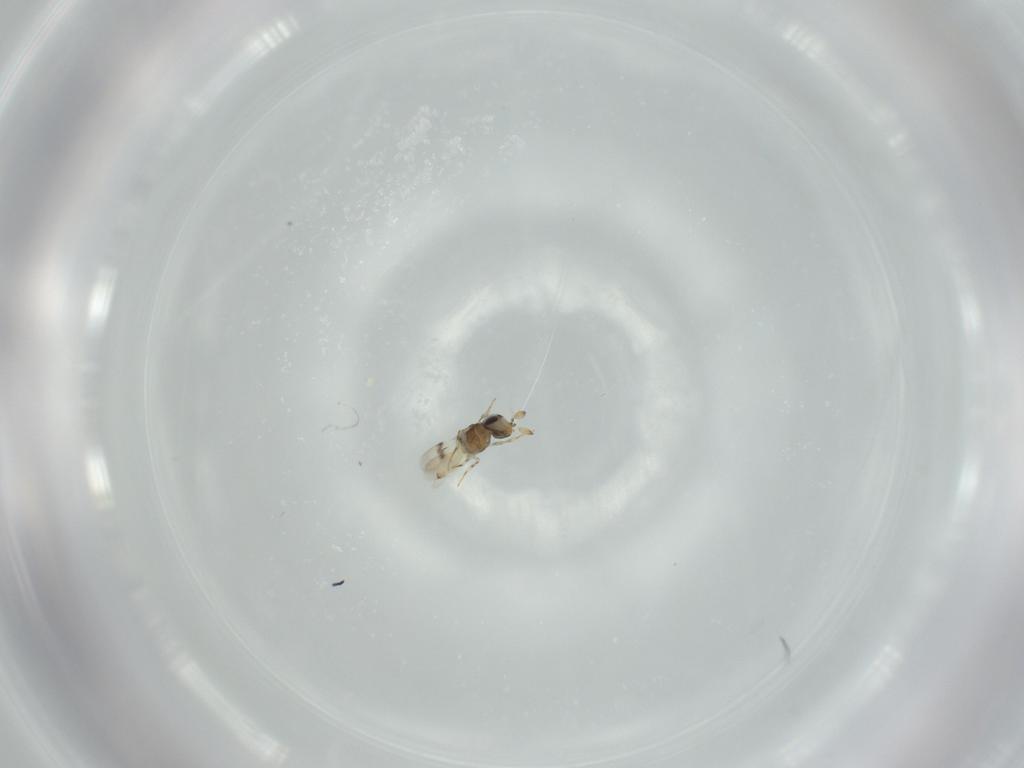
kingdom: Animalia
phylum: Arthropoda
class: Insecta
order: Hymenoptera
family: Scelionidae
